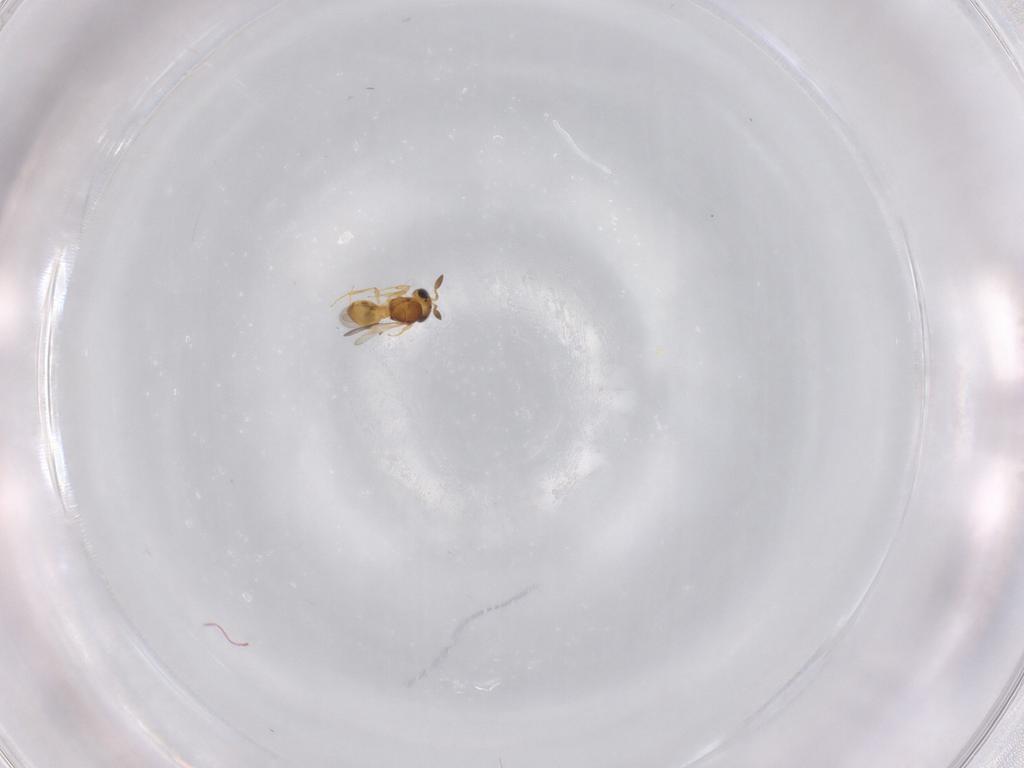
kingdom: Animalia
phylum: Arthropoda
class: Insecta
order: Hymenoptera
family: Scelionidae
